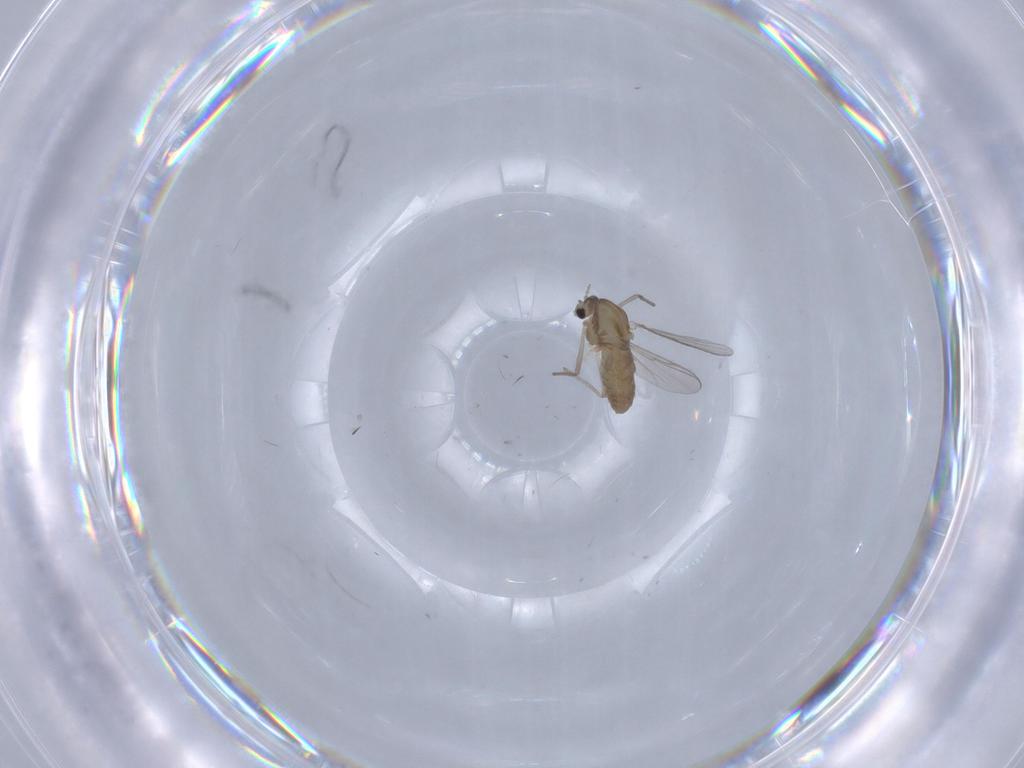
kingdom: Animalia
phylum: Arthropoda
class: Insecta
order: Diptera
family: Chironomidae
